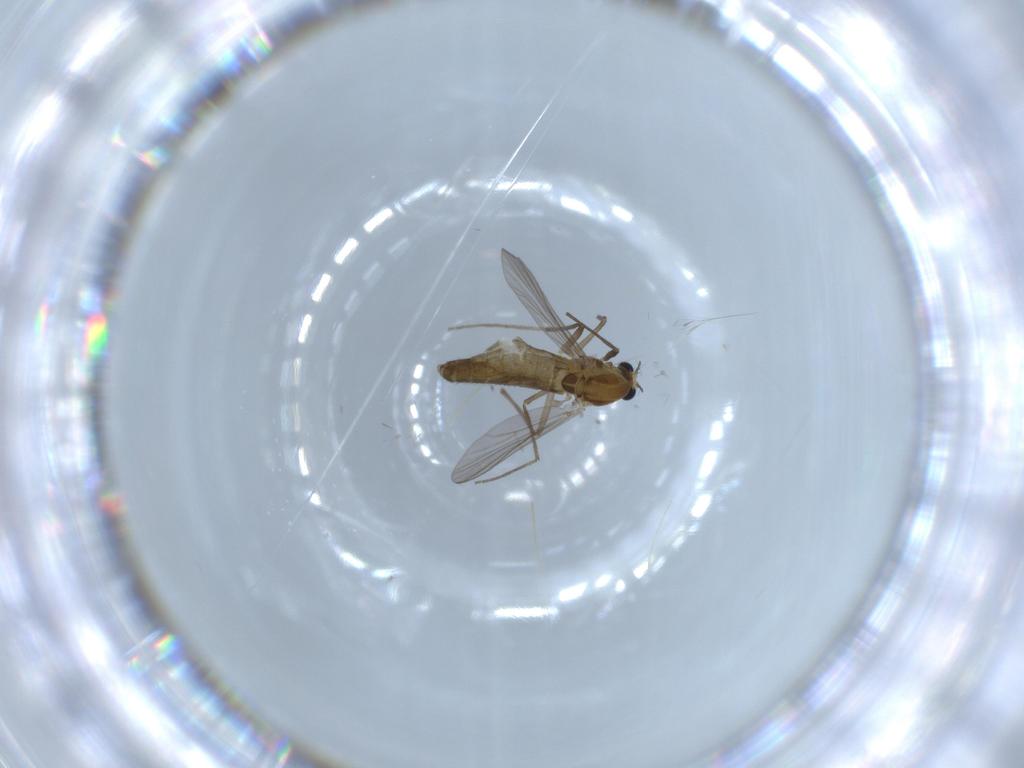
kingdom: Animalia
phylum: Arthropoda
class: Insecta
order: Diptera
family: Chironomidae
